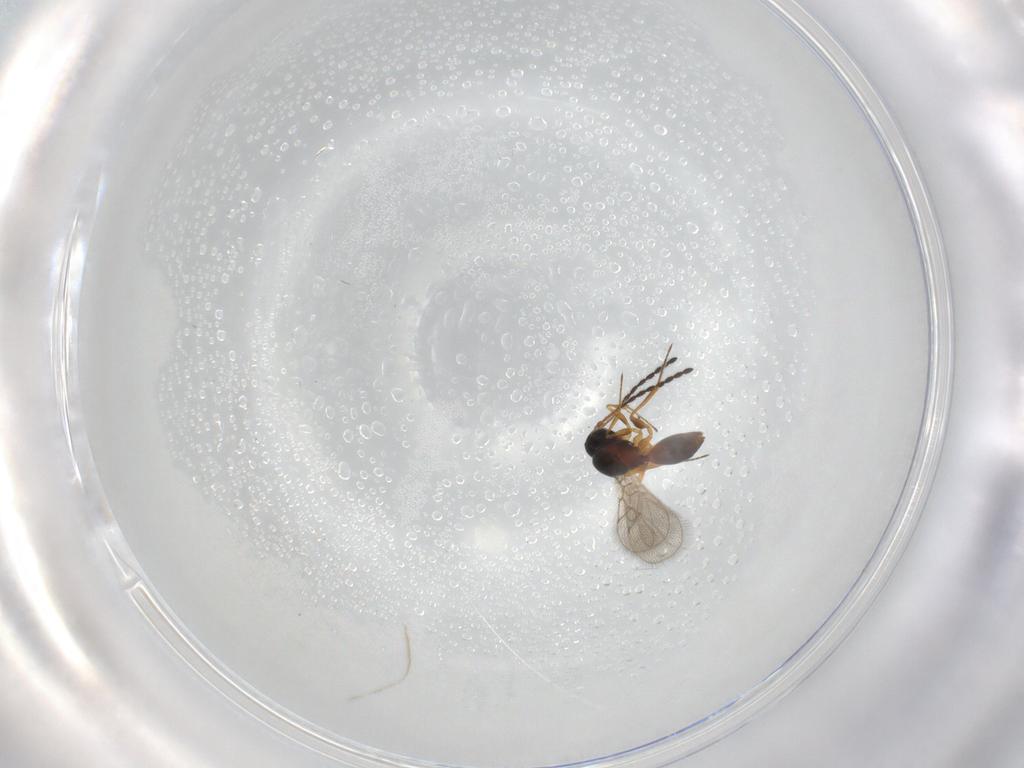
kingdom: Animalia
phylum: Arthropoda
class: Insecta
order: Hymenoptera
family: Figitidae
